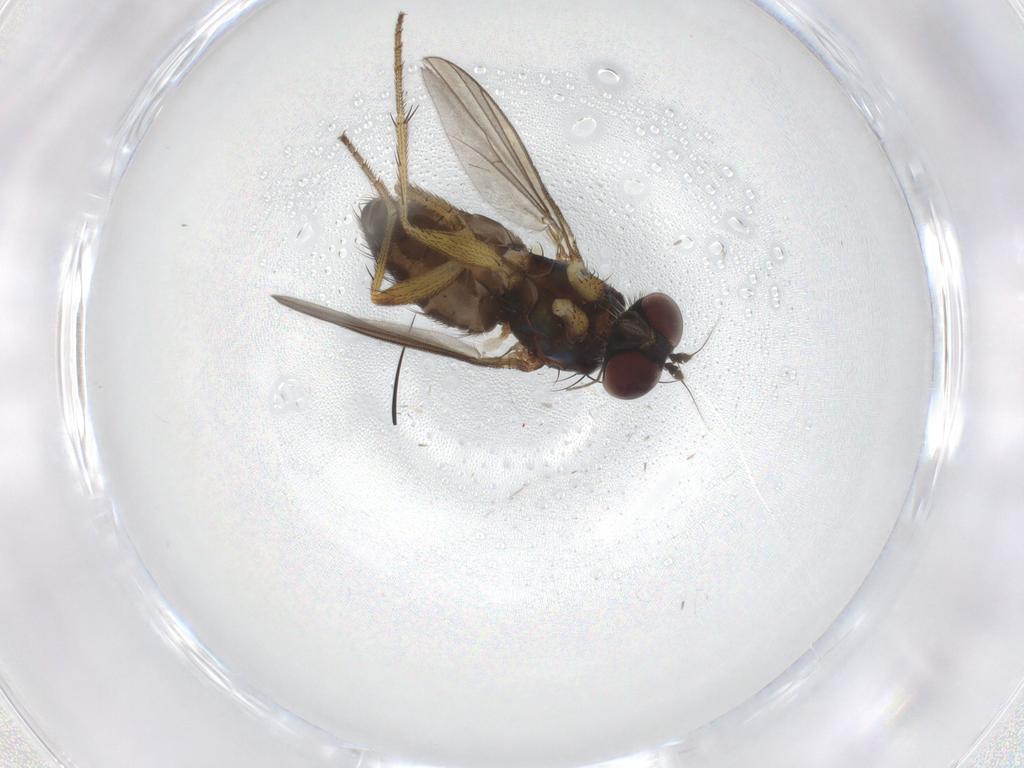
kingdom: Animalia
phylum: Arthropoda
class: Insecta
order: Diptera
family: Dolichopodidae
